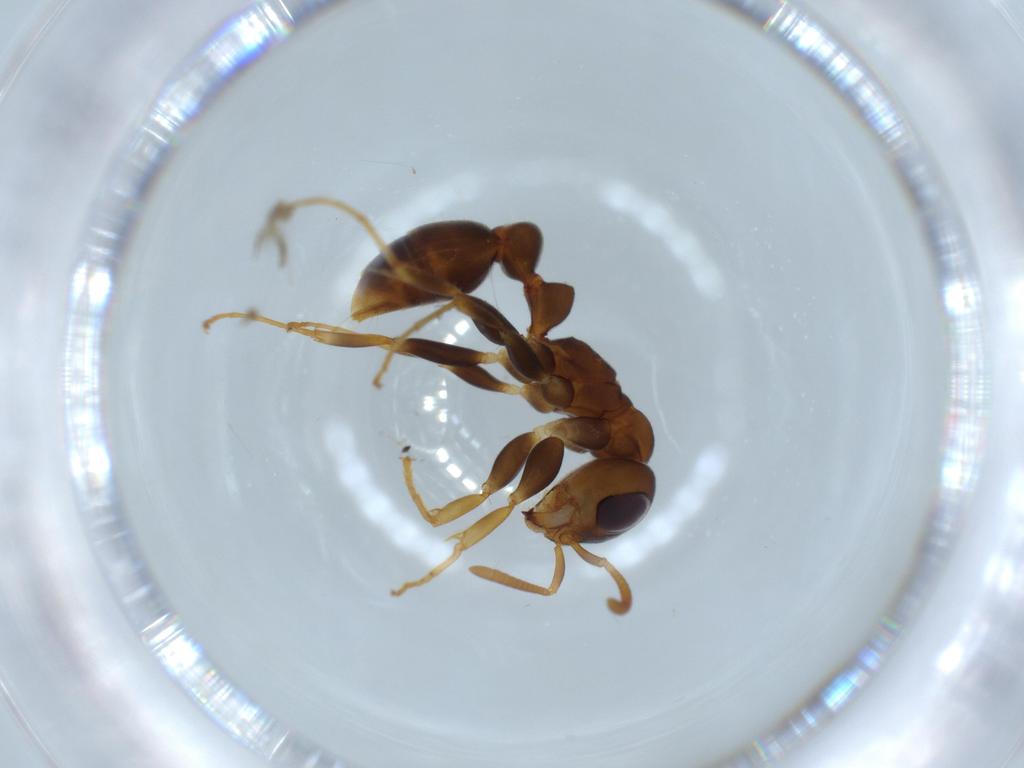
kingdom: Animalia
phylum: Arthropoda
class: Insecta
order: Hymenoptera
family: Formicidae
